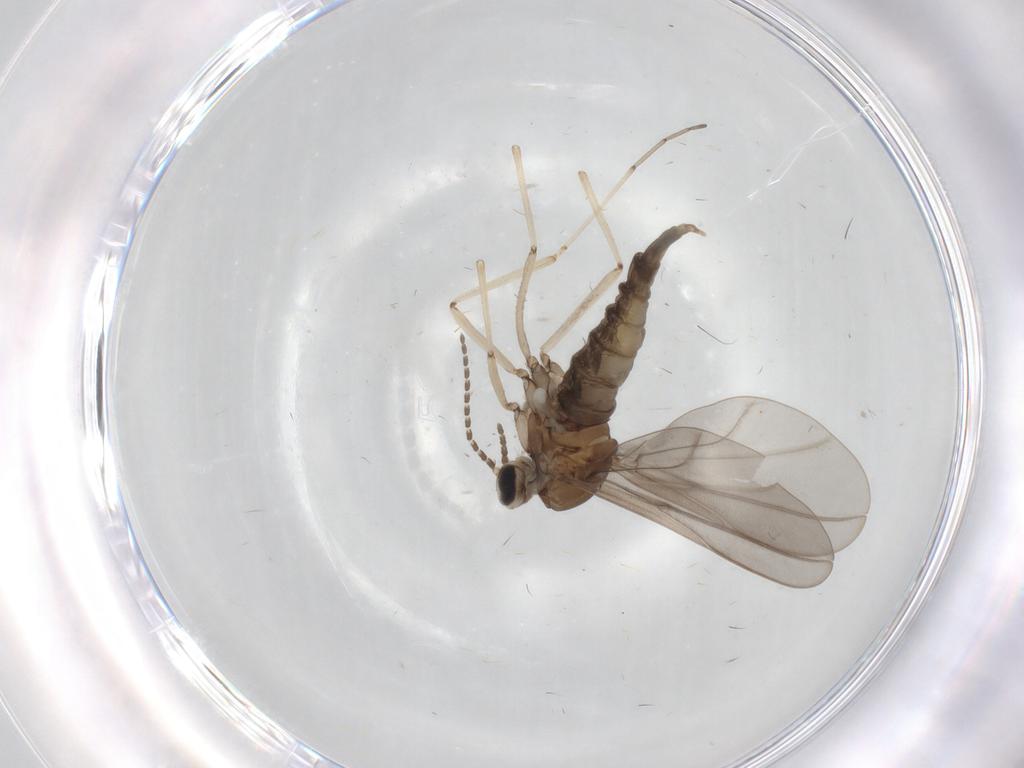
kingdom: Animalia
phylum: Arthropoda
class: Insecta
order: Diptera
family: Cecidomyiidae
